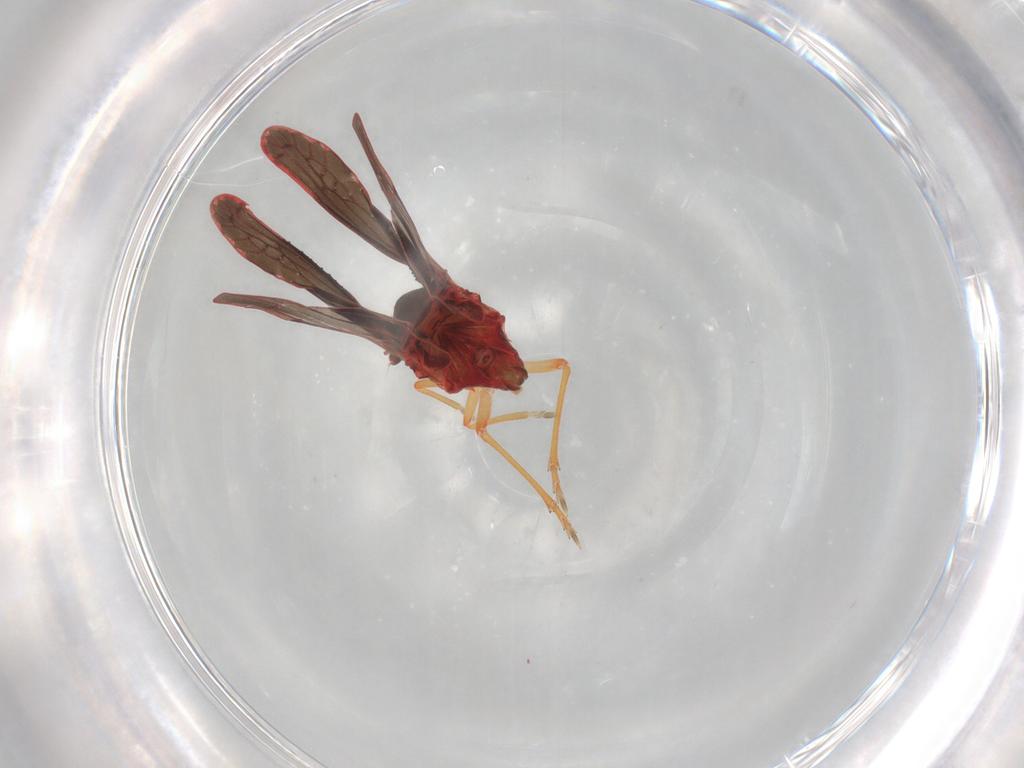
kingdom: Animalia
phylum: Arthropoda
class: Insecta
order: Hemiptera
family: Derbidae
